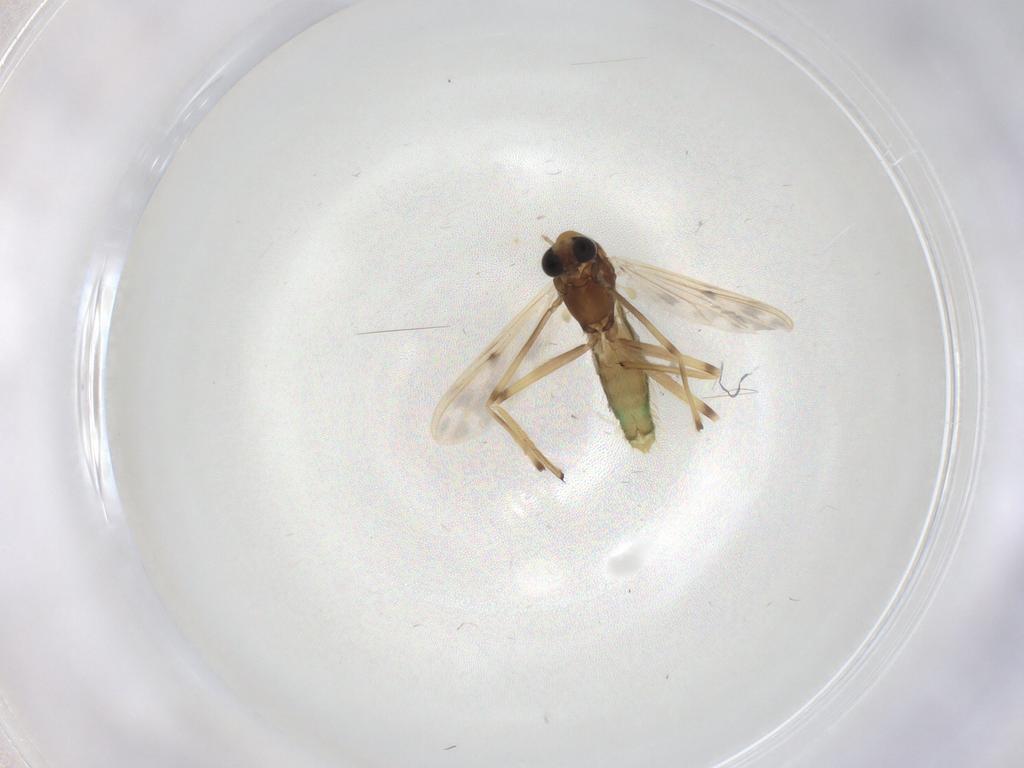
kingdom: Animalia
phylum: Arthropoda
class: Insecta
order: Diptera
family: Chironomidae
